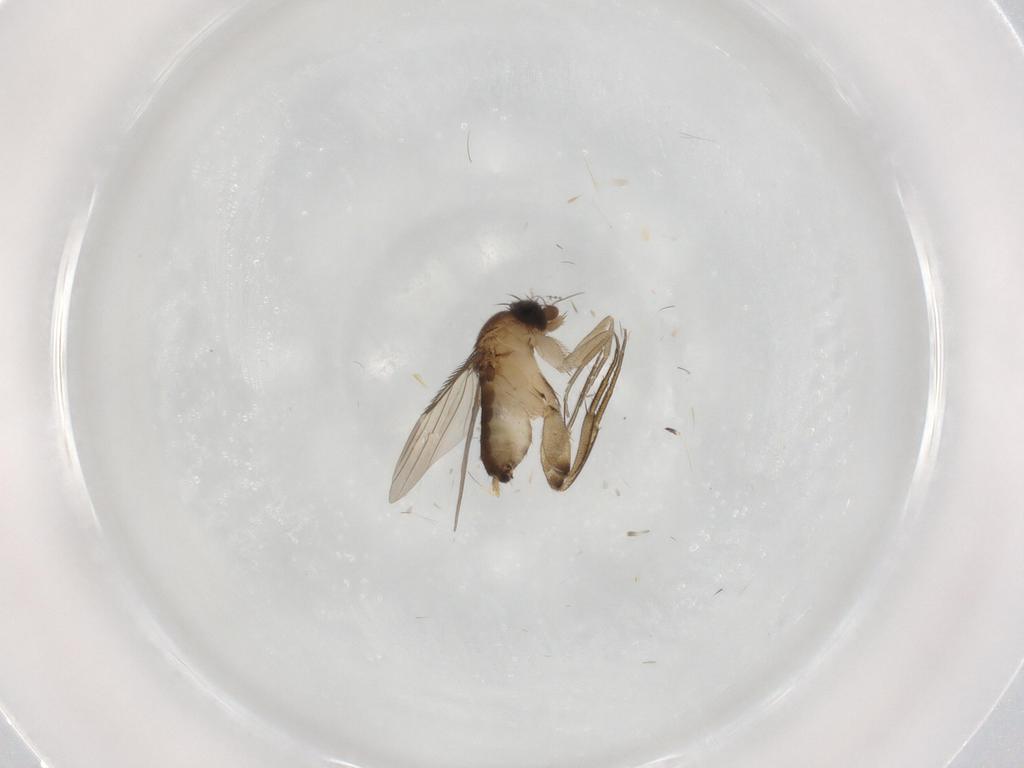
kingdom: Animalia
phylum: Arthropoda
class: Insecta
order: Diptera
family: Phoridae
